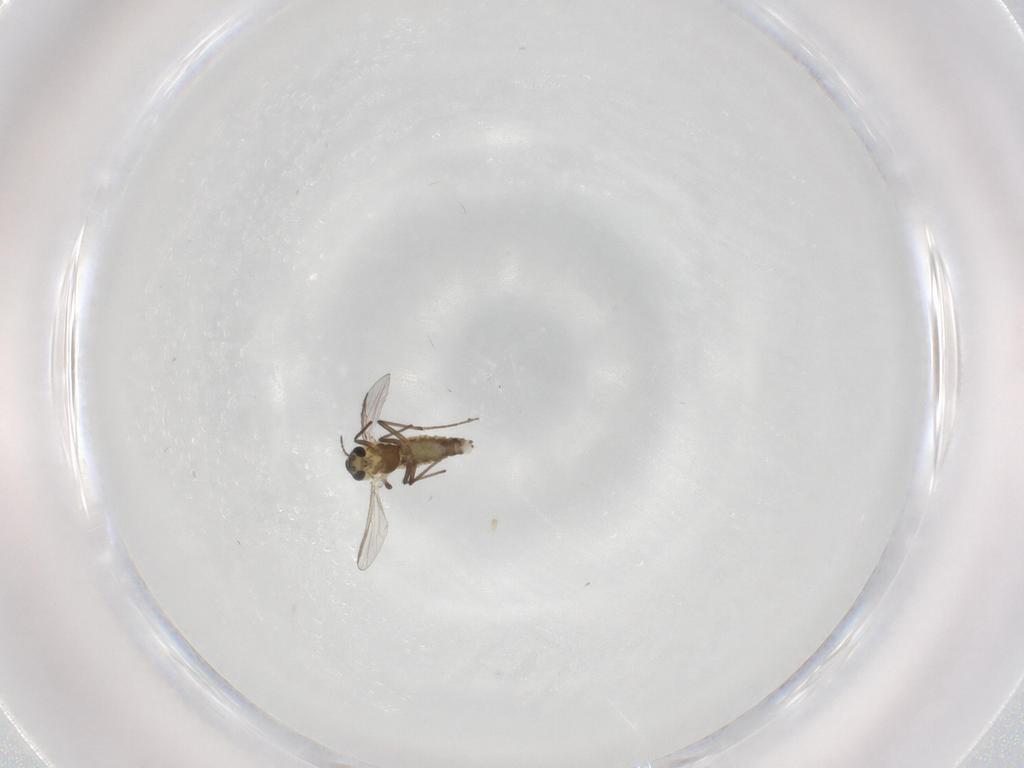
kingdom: Animalia
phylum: Arthropoda
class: Insecta
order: Diptera
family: Chironomidae
